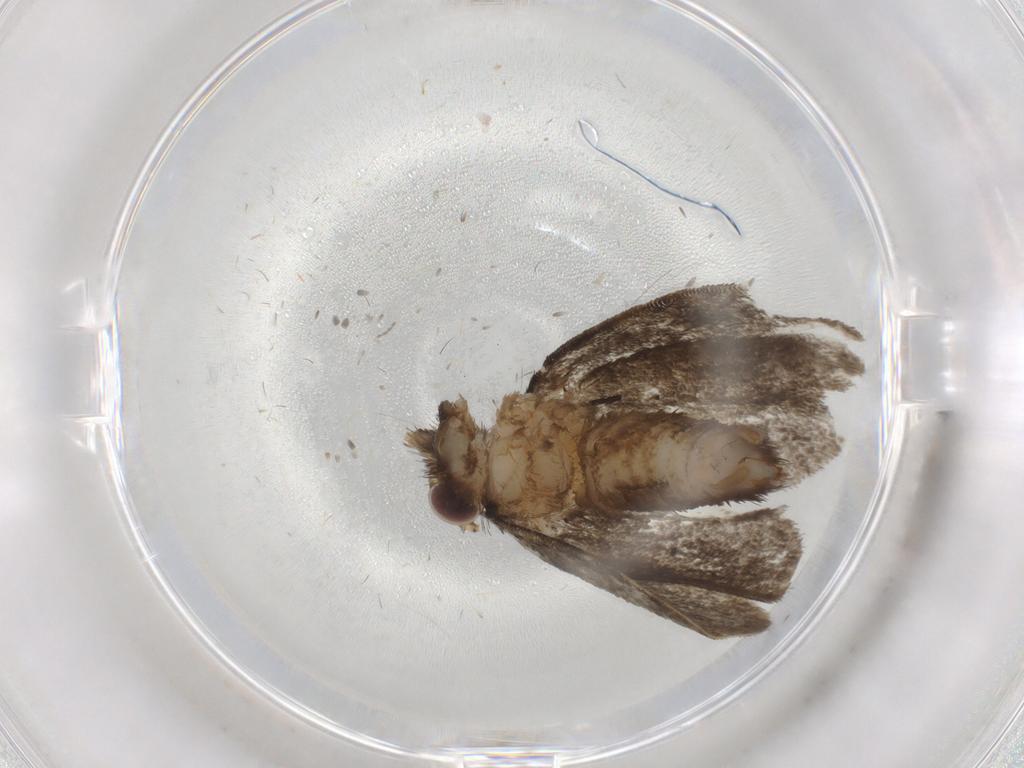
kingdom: Animalia
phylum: Arthropoda
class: Insecta
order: Lepidoptera
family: Tineidae
